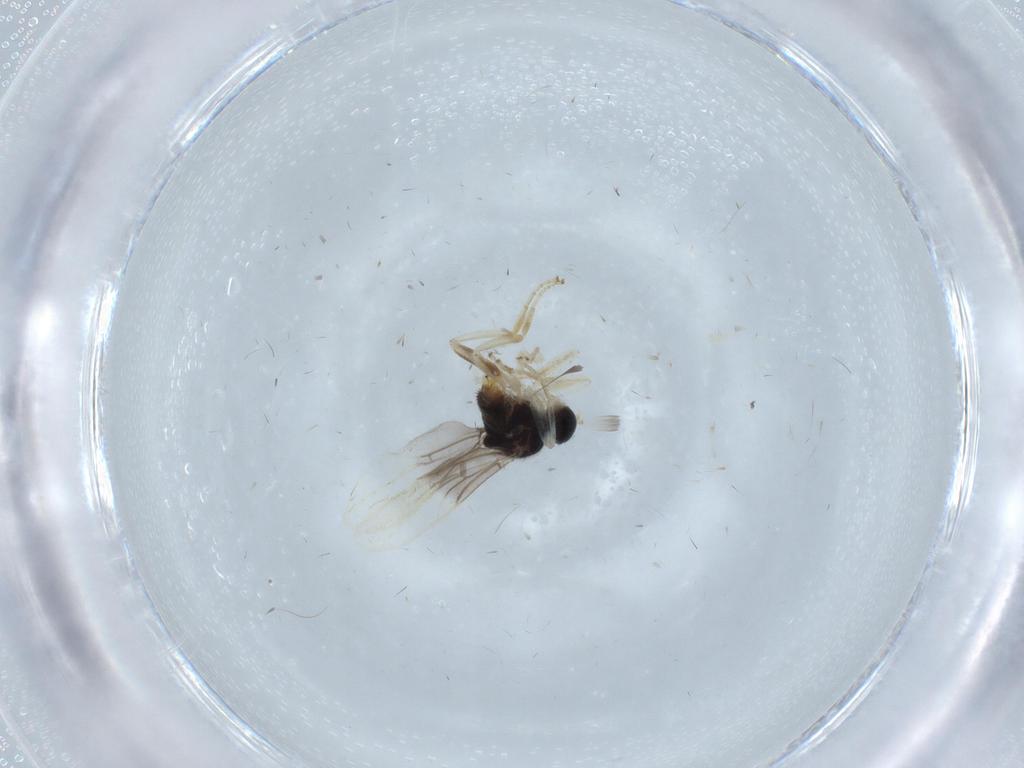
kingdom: Animalia
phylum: Arthropoda
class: Insecta
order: Diptera
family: Hybotidae
